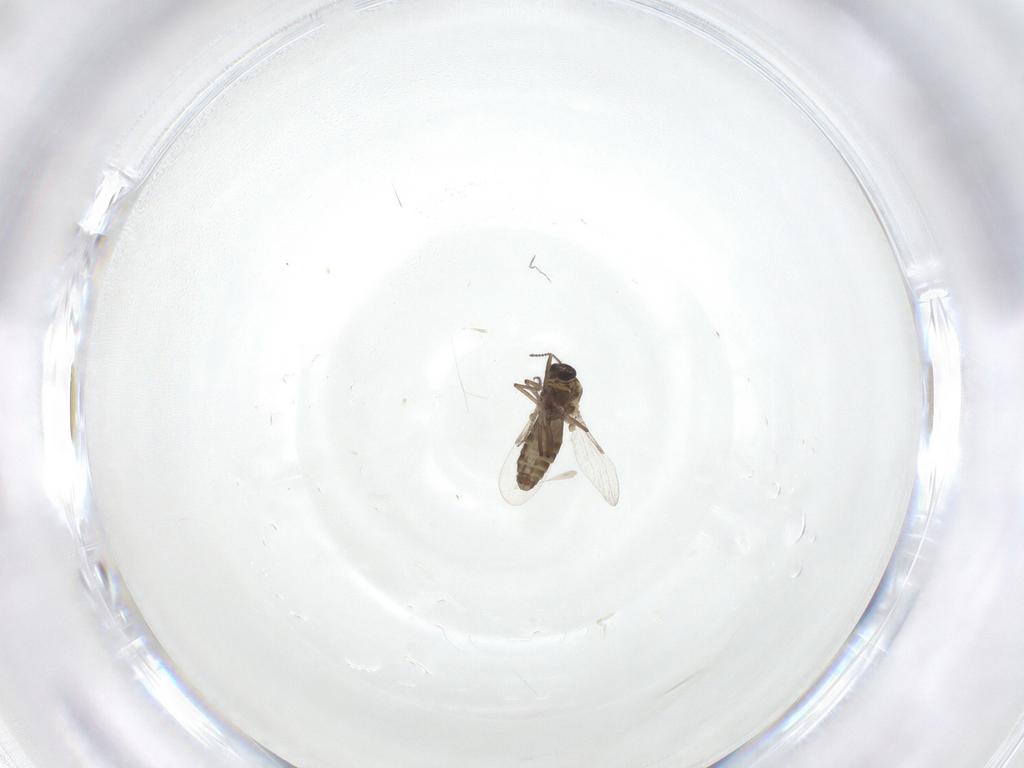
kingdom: Animalia
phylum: Arthropoda
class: Insecta
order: Diptera
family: Ceratopogonidae
